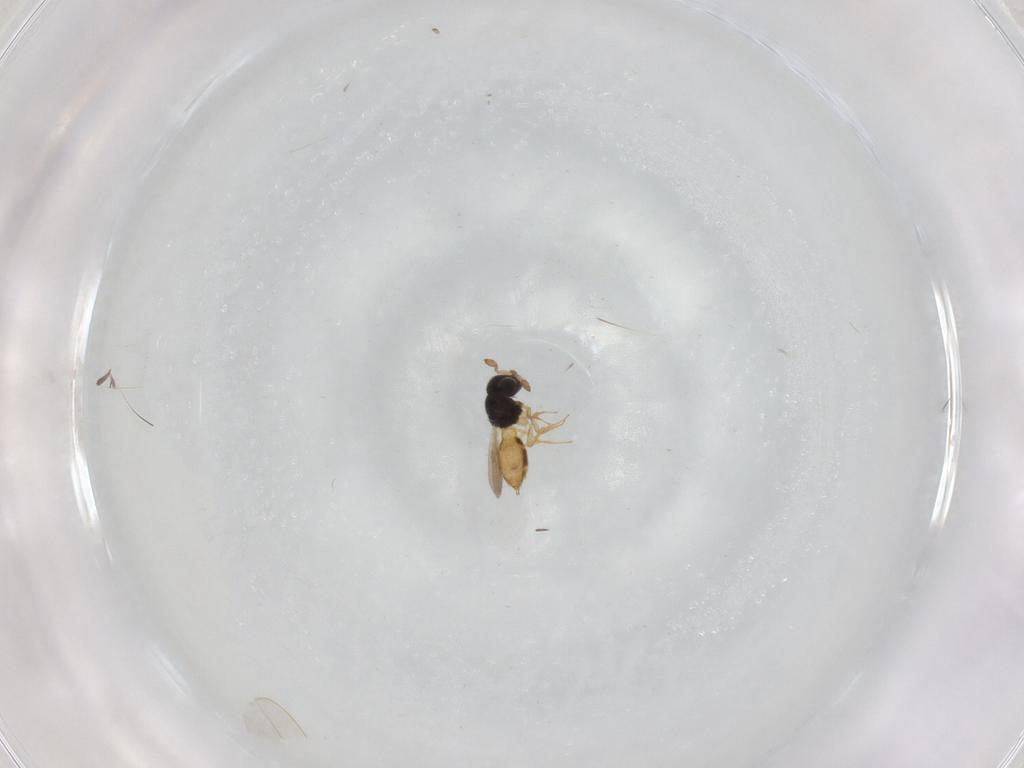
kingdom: Animalia
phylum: Arthropoda
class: Insecta
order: Hymenoptera
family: Scelionidae
